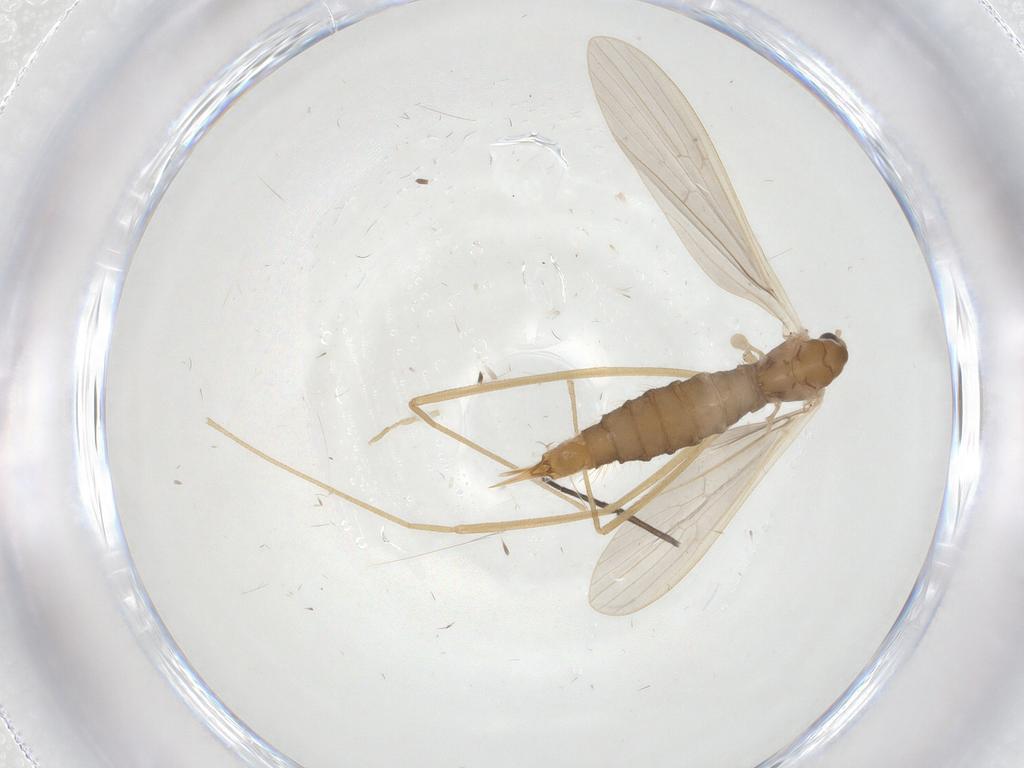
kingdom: Animalia
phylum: Arthropoda
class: Insecta
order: Diptera
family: Limoniidae
